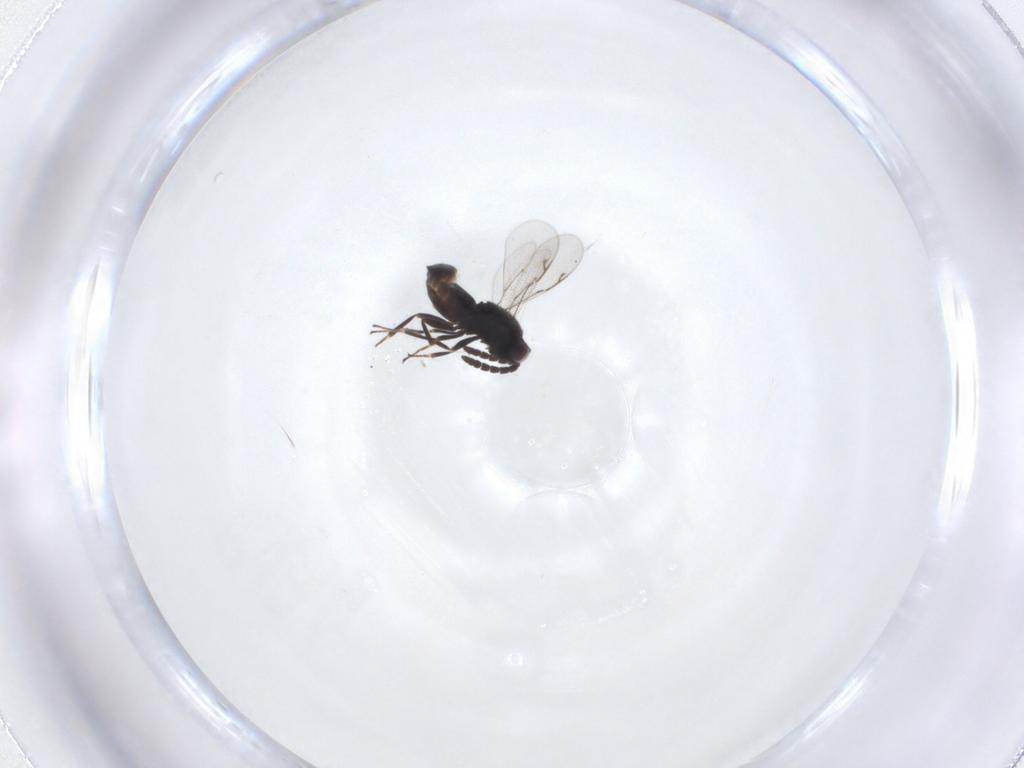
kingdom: Animalia
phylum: Arthropoda
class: Insecta
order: Hymenoptera
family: Eunotidae
